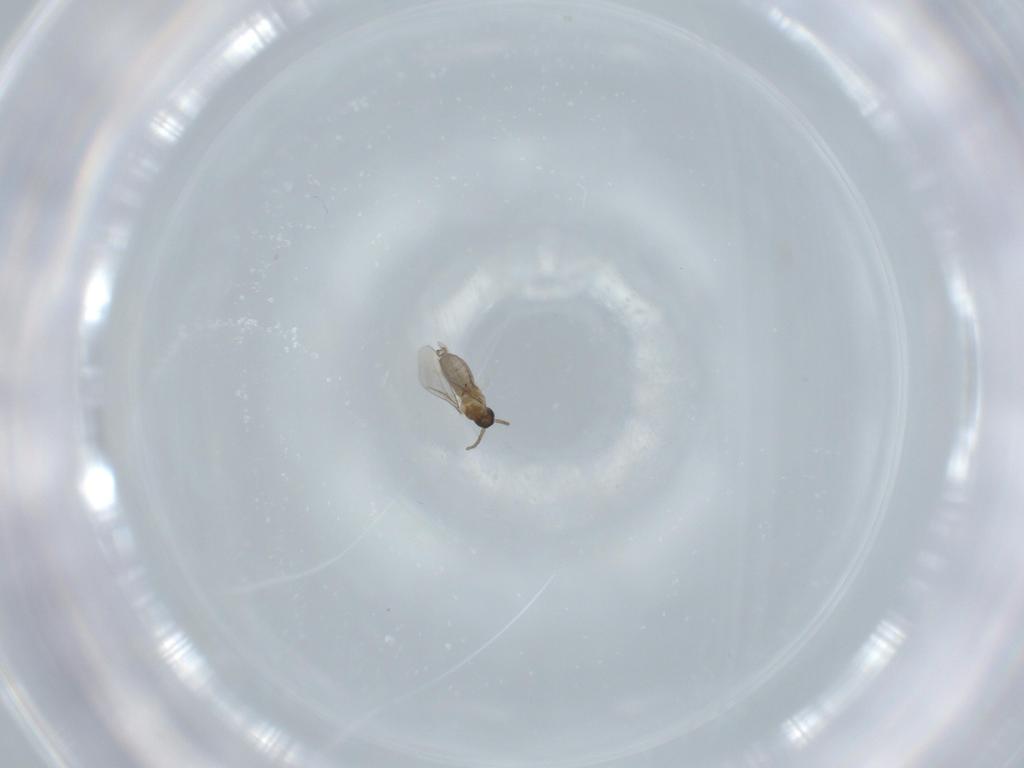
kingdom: Animalia
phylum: Arthropoda
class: Insecta
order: Diptera
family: Cecidomyiidae
